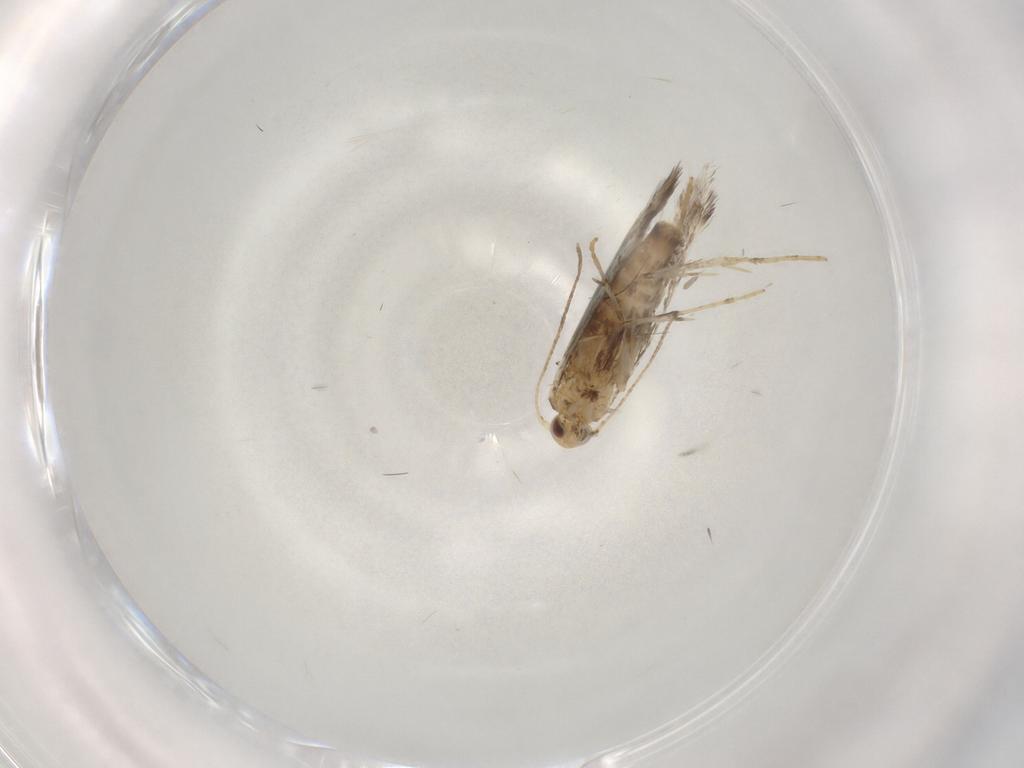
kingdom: Animalia
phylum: Arthropoda
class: Insecta
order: Lepidoptera
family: Gracillariidae
